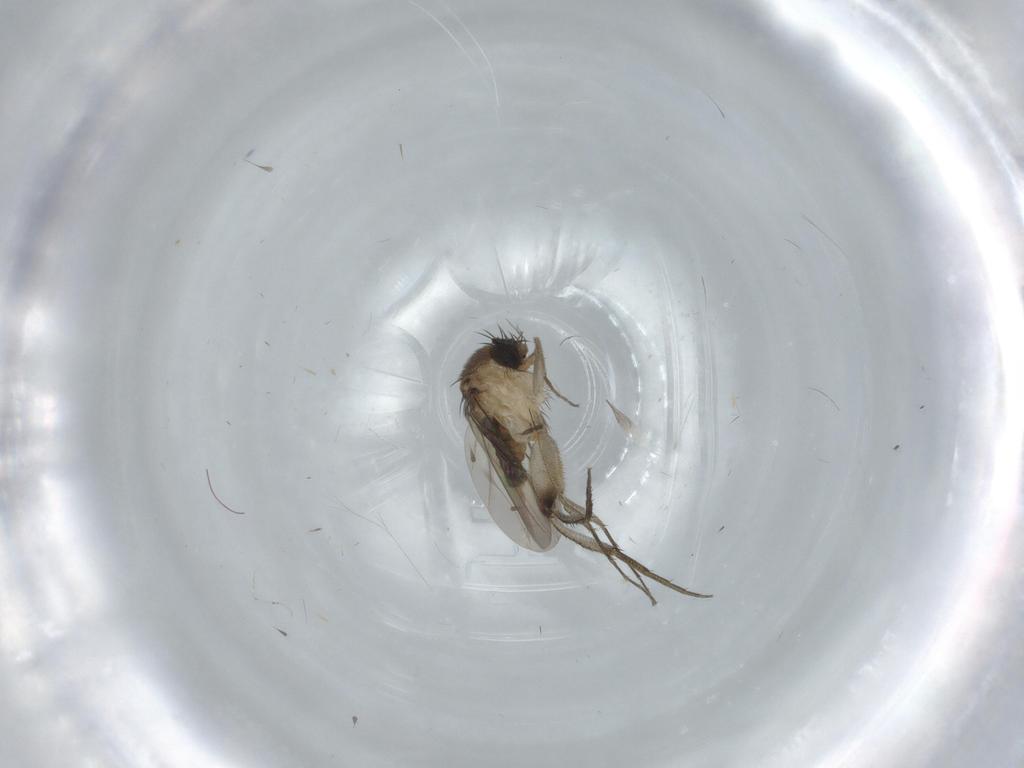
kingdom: Animalia
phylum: Arthropoda
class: Insecta
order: Diptera
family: Phoridae
